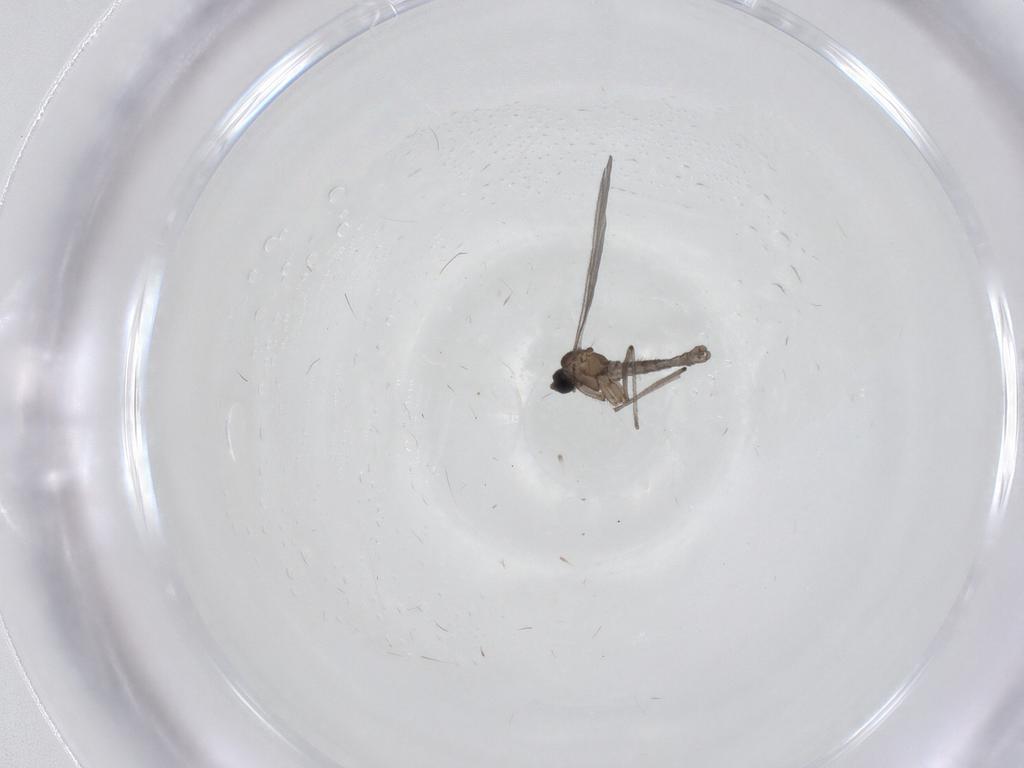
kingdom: Animalia
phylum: Arthropoda
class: Insecta
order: Diptera
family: Sciaridae
